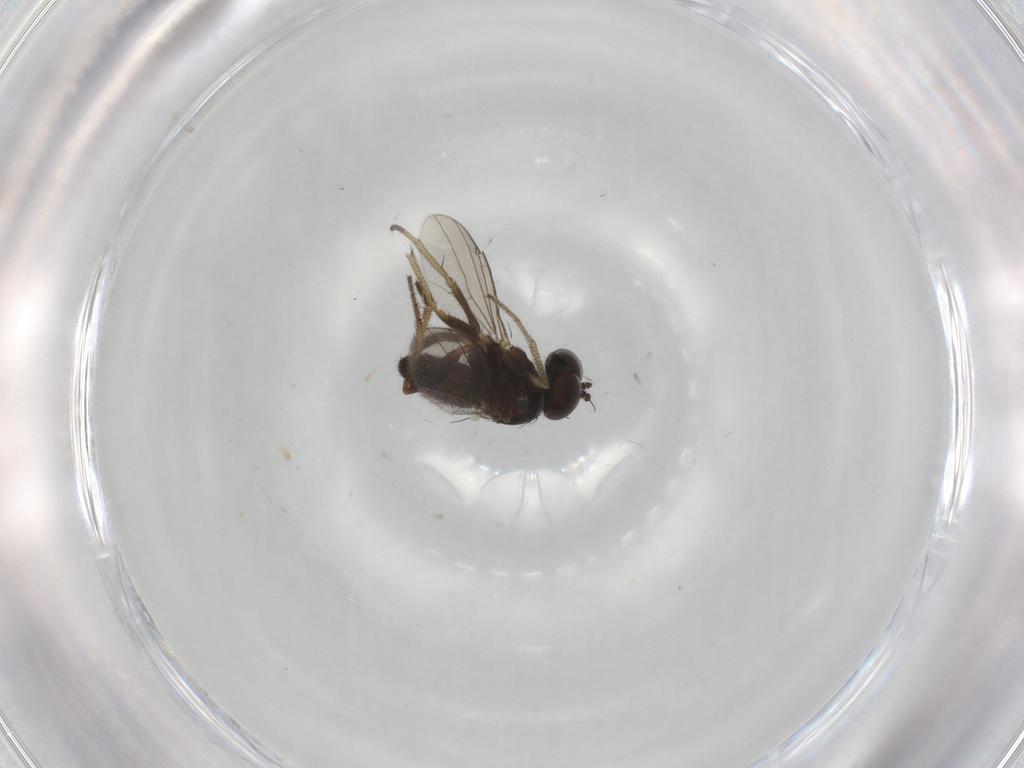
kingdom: Animalia
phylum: Arthropoda
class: Insecta
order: Diptera
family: Dolichopodidae
